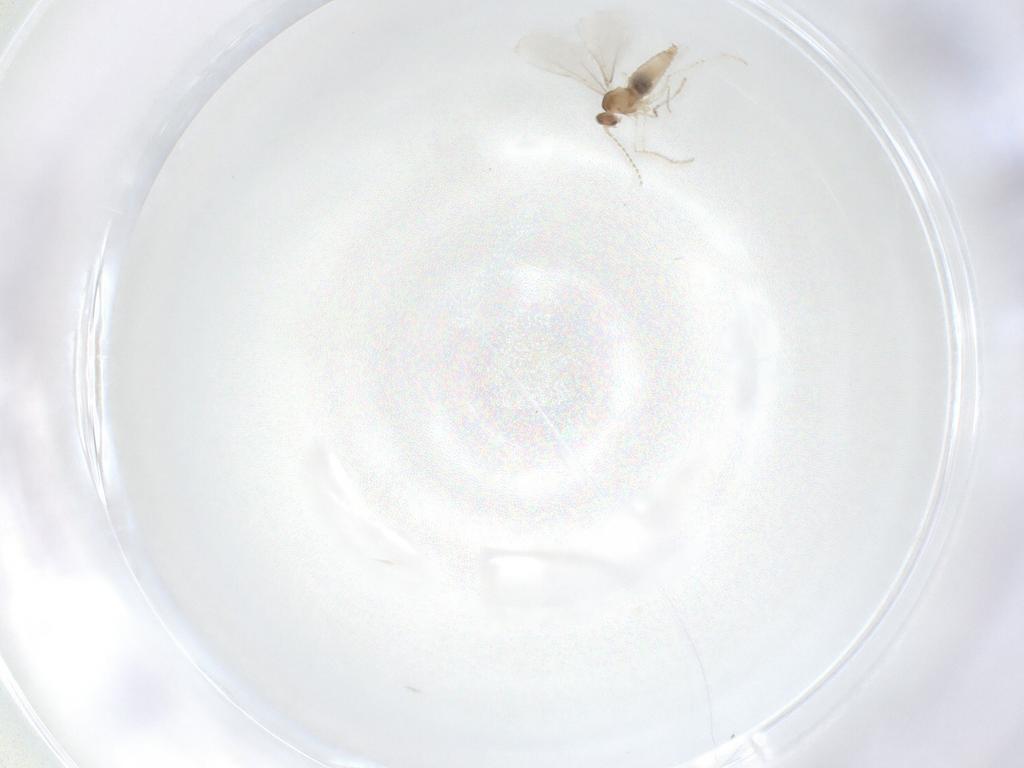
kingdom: Animalia
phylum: Arthropoda
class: Insecta
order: Diptera
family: Cecidomyiidae
